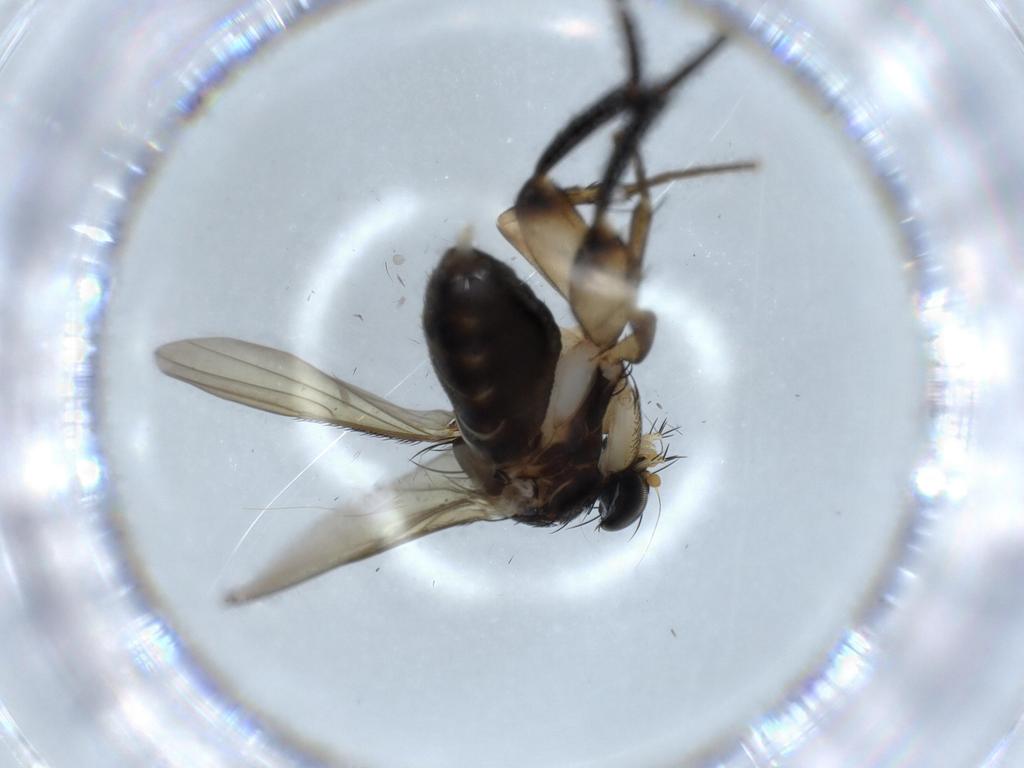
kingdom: Animalia
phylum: Arthropoda
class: Insecta
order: Diptera
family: Phoridae
